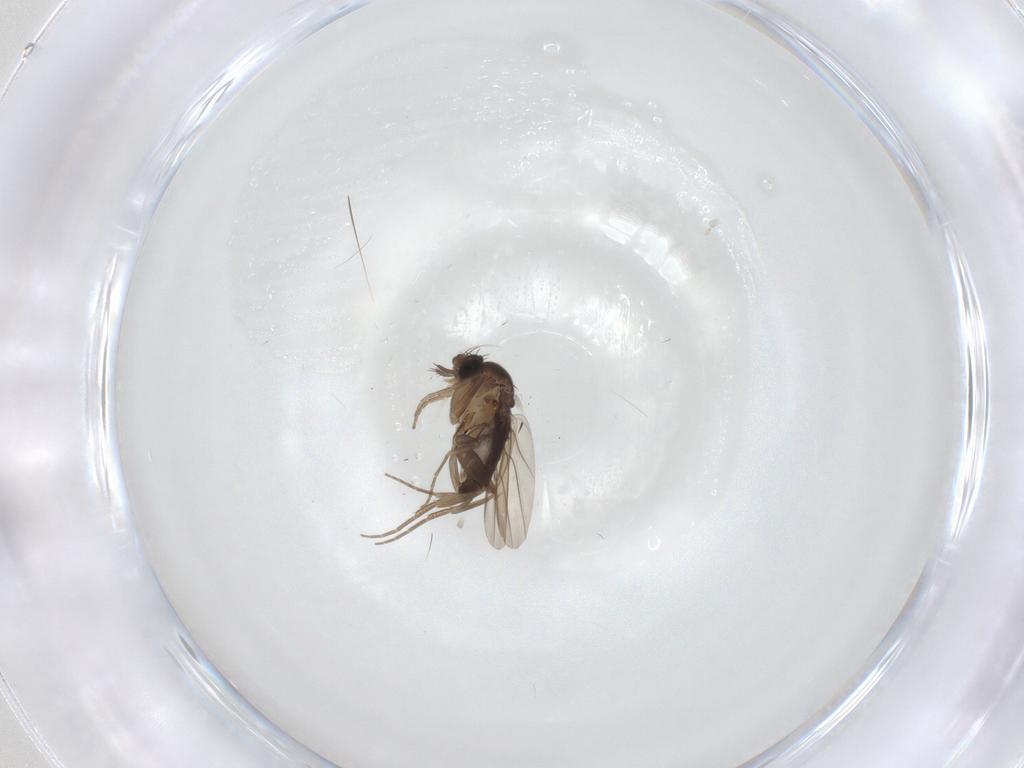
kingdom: Animalia
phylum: Arthropoda
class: Insecta
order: Diptera
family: Phoridae
